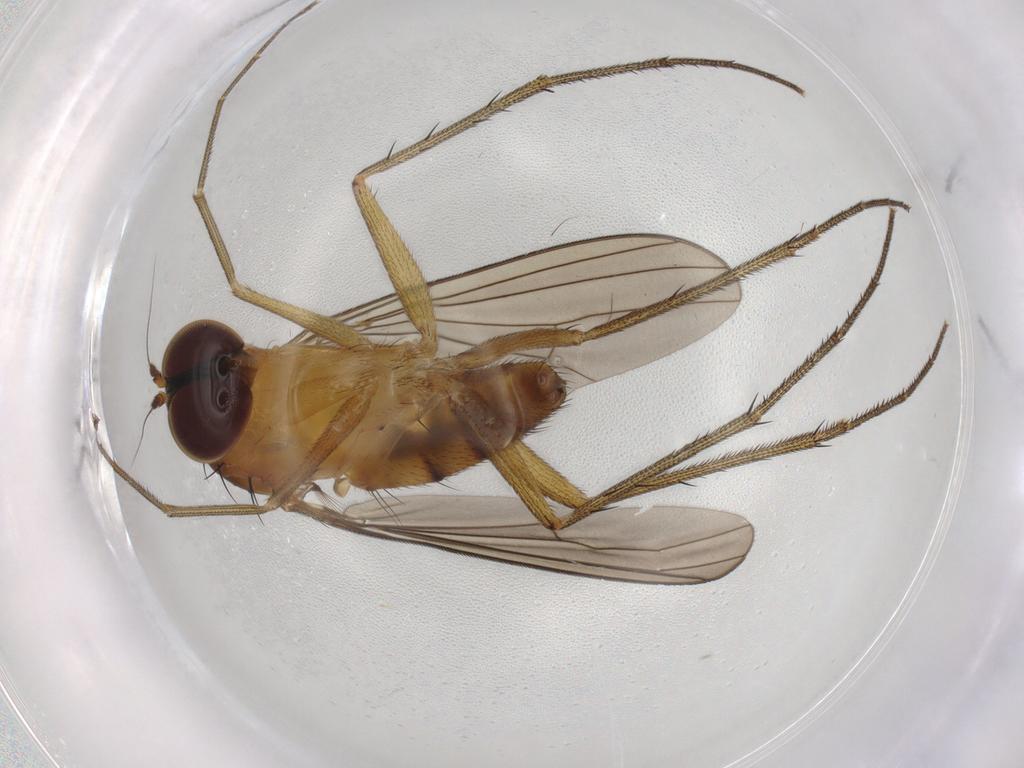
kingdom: Animalia
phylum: Arthropoda
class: Insecta
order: Diptera
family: Dolichopodidae
